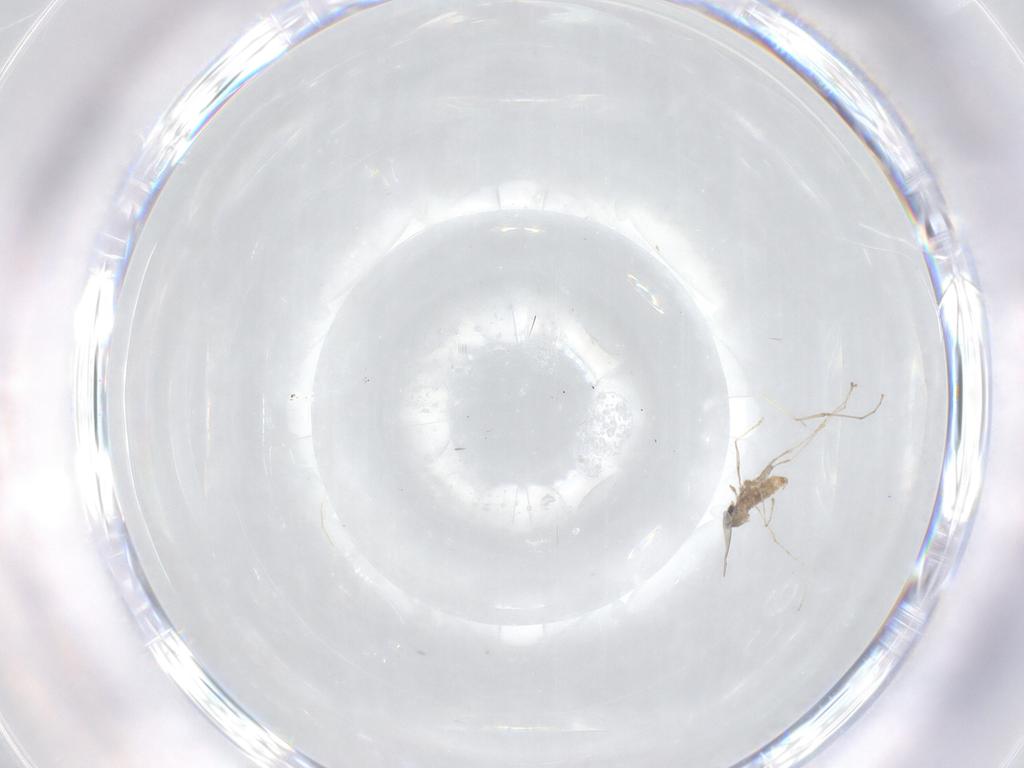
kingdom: Animalia
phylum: Arthropoda
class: Insecta
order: Diptera
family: Cecidomyiidae
